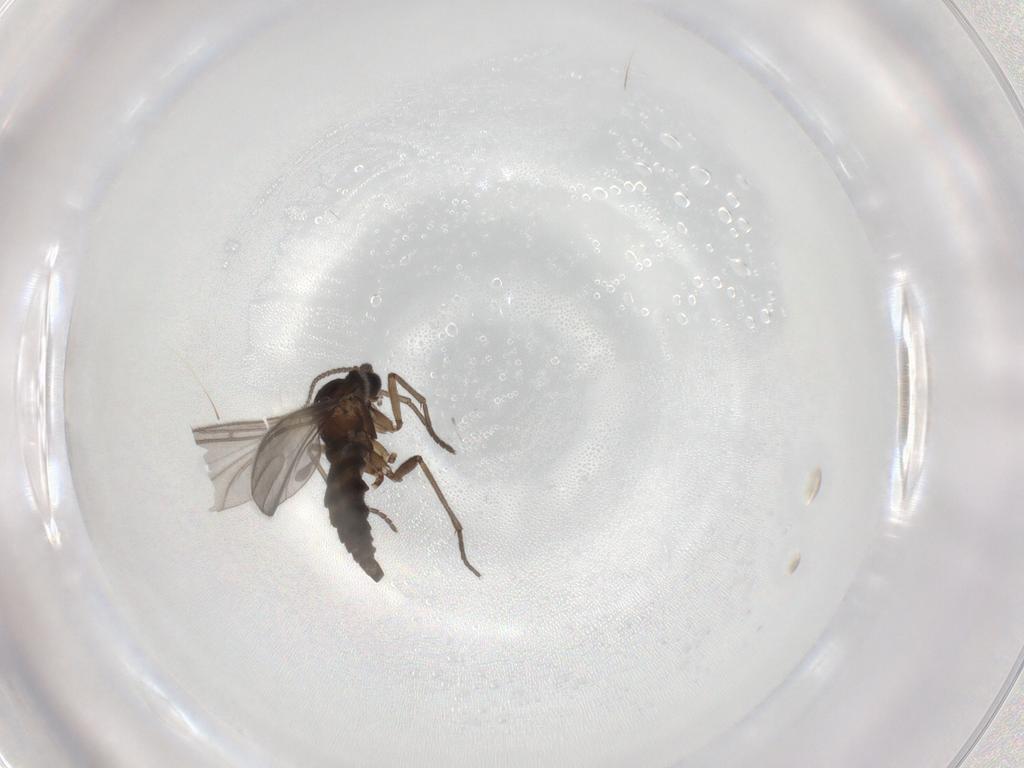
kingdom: Animalia
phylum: Arthropoda
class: Insecta
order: Diptera
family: Sciaridae
